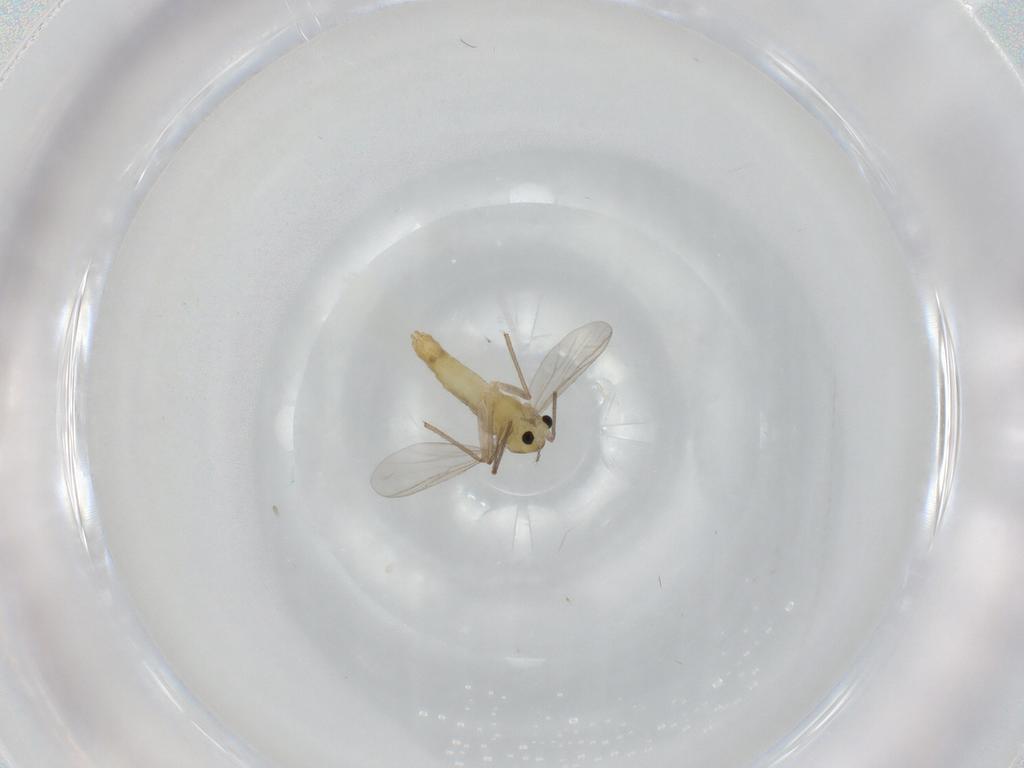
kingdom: Animalia
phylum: Arthropoda
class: Insecta
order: Diptera
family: Chironomidae
